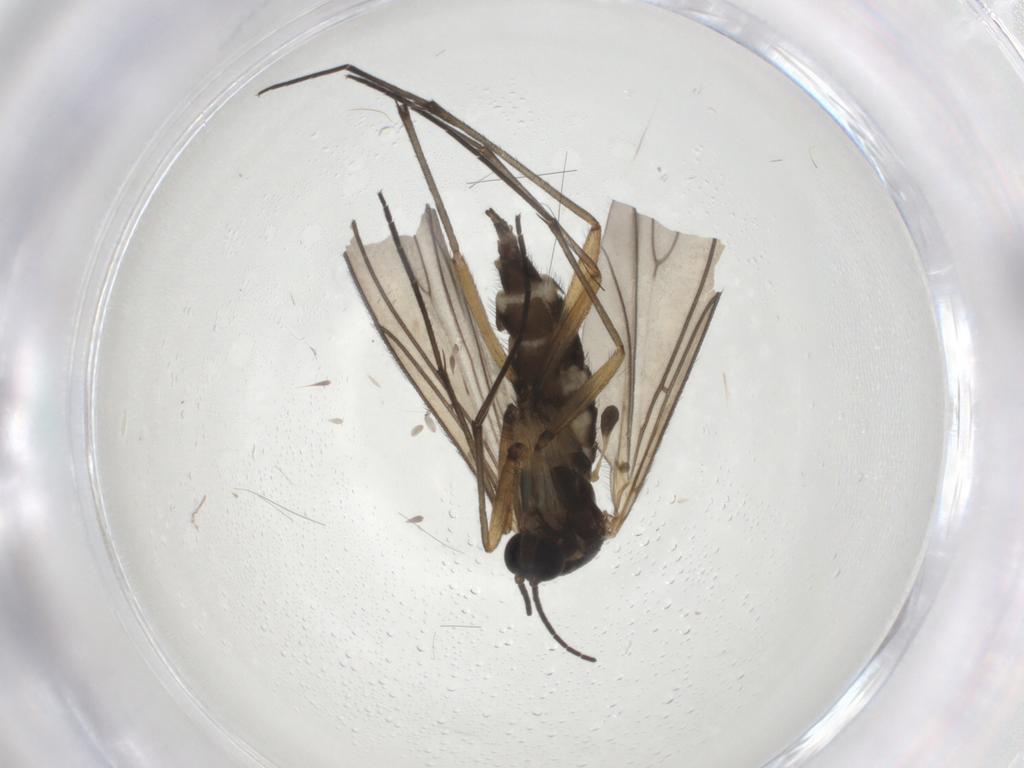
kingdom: Animalia
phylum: Arthropoda
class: Insecta
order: Diptera
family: Sciaridae
